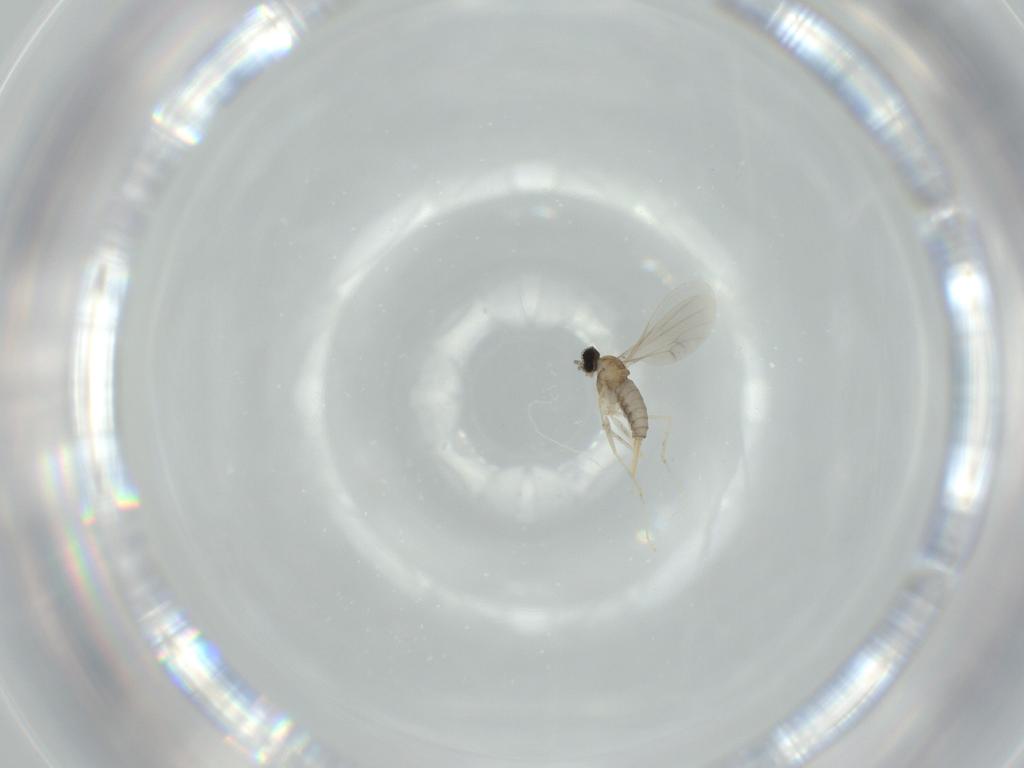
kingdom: Animalia
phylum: Arthropoda
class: Insecta
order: Diptera
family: Cecidomyiidae
